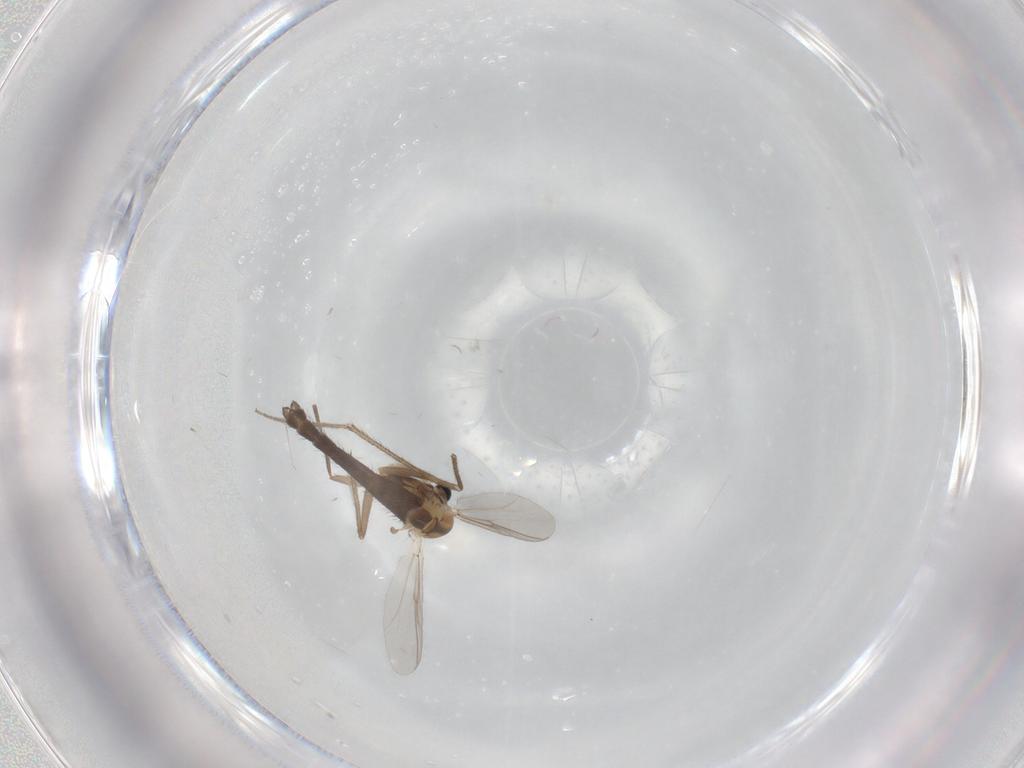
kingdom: Animalia
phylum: Arthropoda
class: Insecta
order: Diptera
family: Chironomidae
